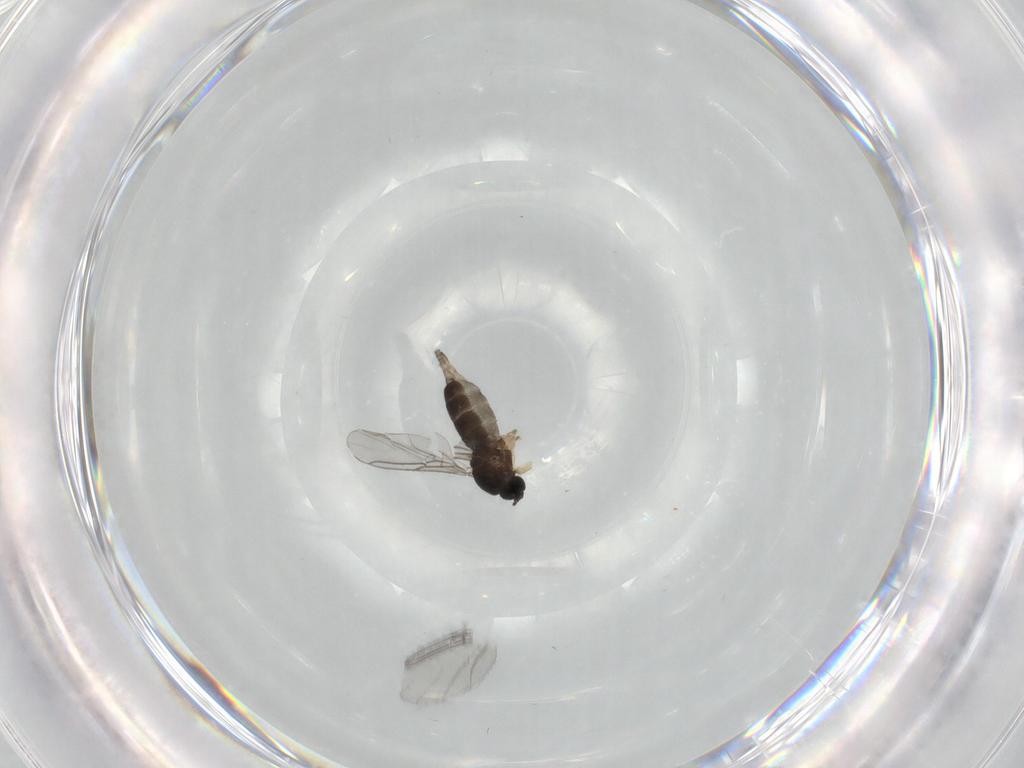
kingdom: Animalia
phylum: Arthropoda
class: Insecta
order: Diptera
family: Sciaridae
